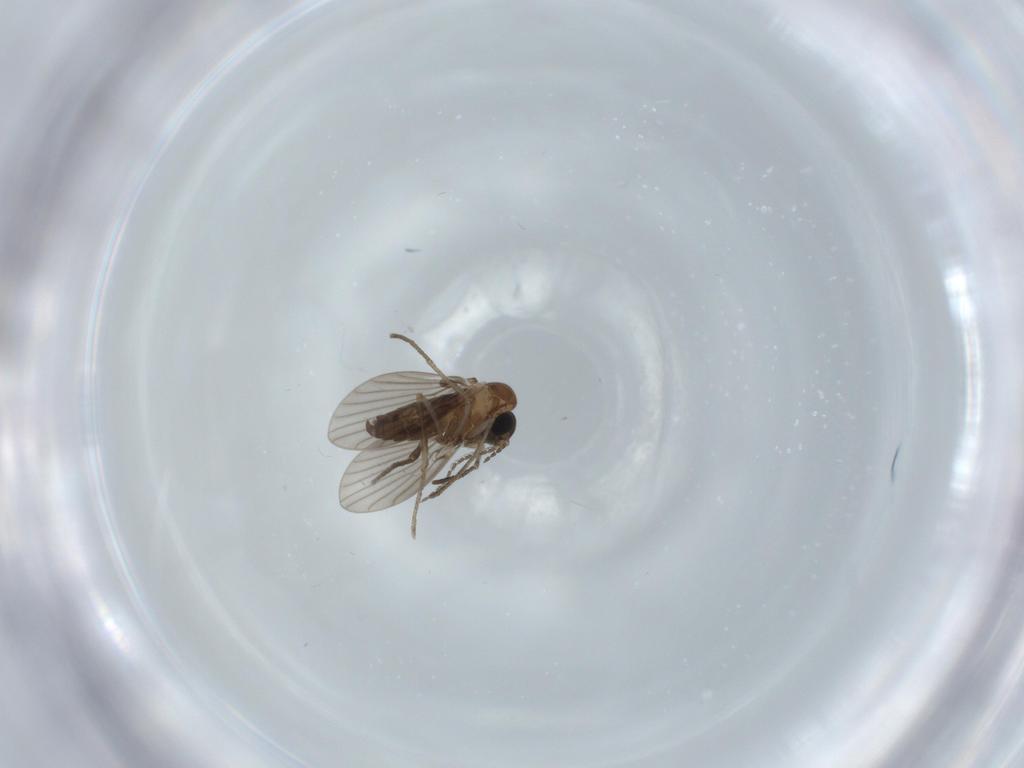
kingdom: Animalia
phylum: Arthropoda
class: Insecta
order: Diptera
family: Psychodidae
